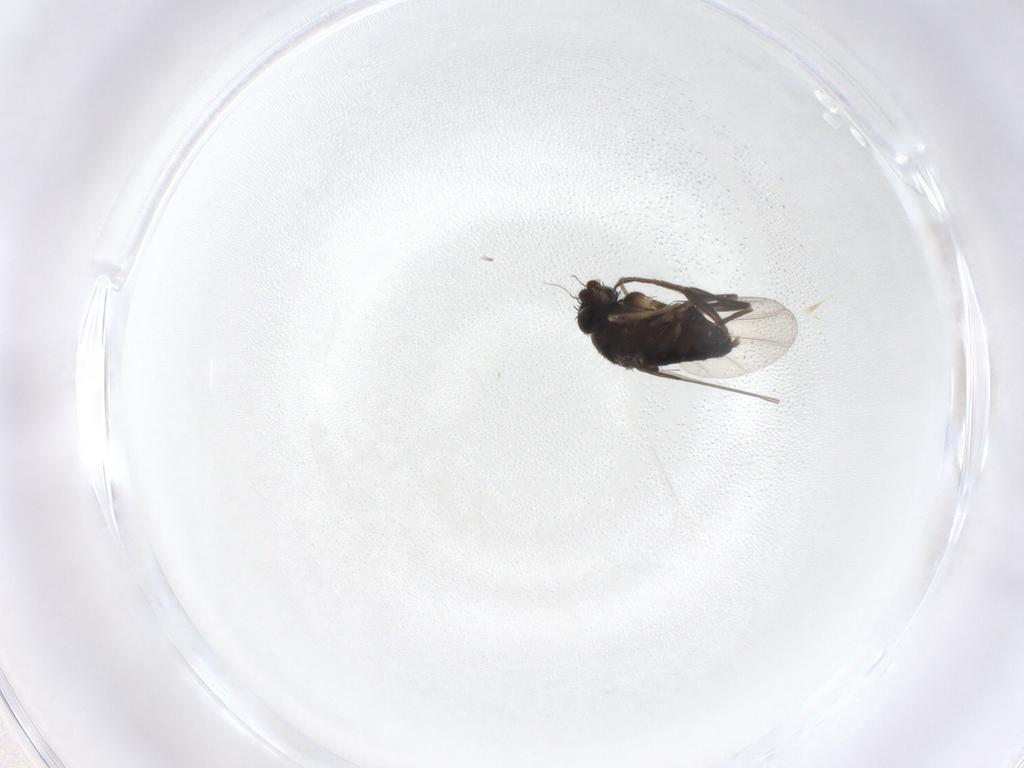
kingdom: Animalia
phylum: Arthropoda
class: Insecta
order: Diptera
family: Phoridae
